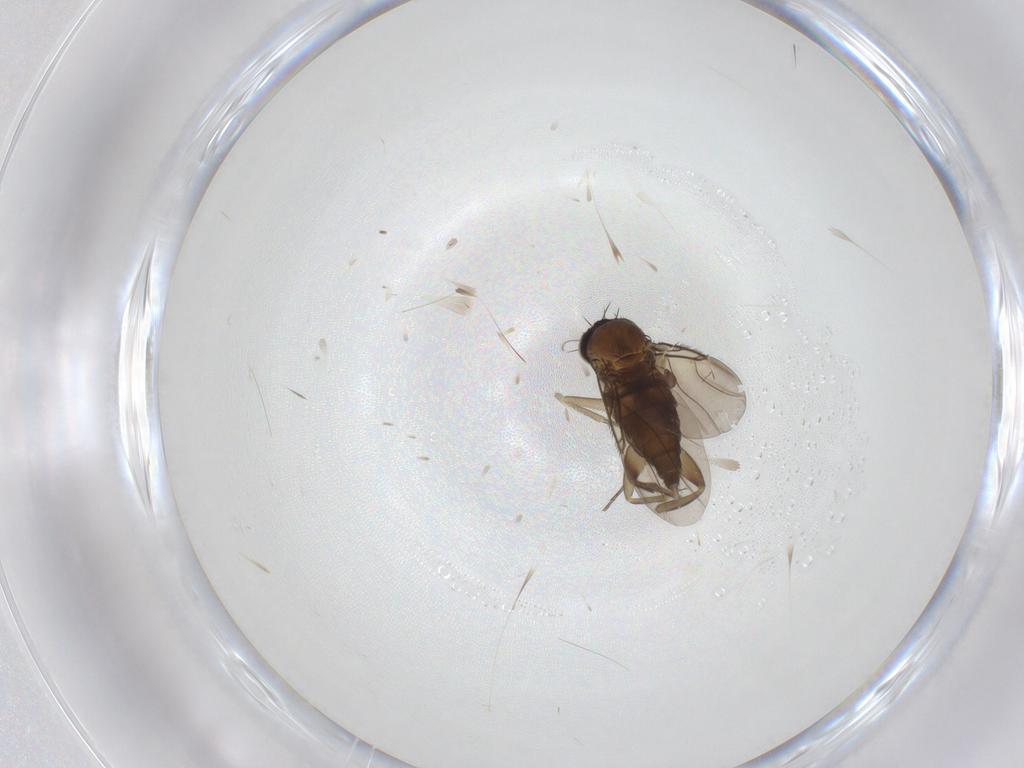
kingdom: Animalia
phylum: Arthropoda
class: Insecta
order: Diptera
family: Phoridae
